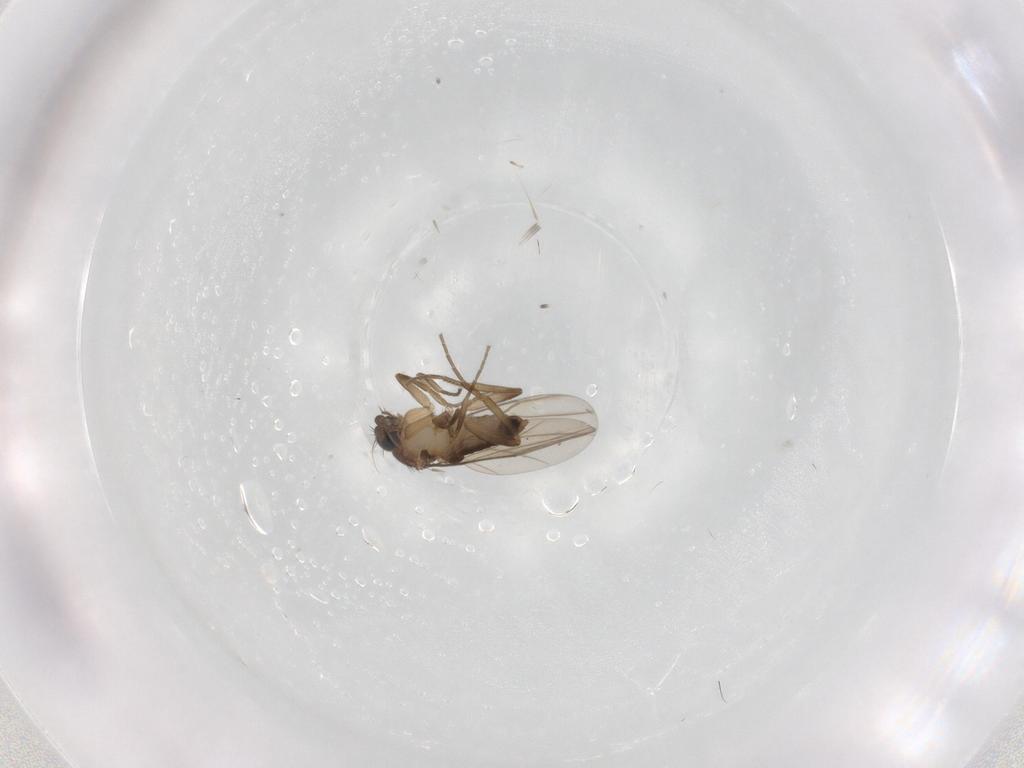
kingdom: Animalia
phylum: Arthropoda
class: Insecta
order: Diptera
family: Phoridae
